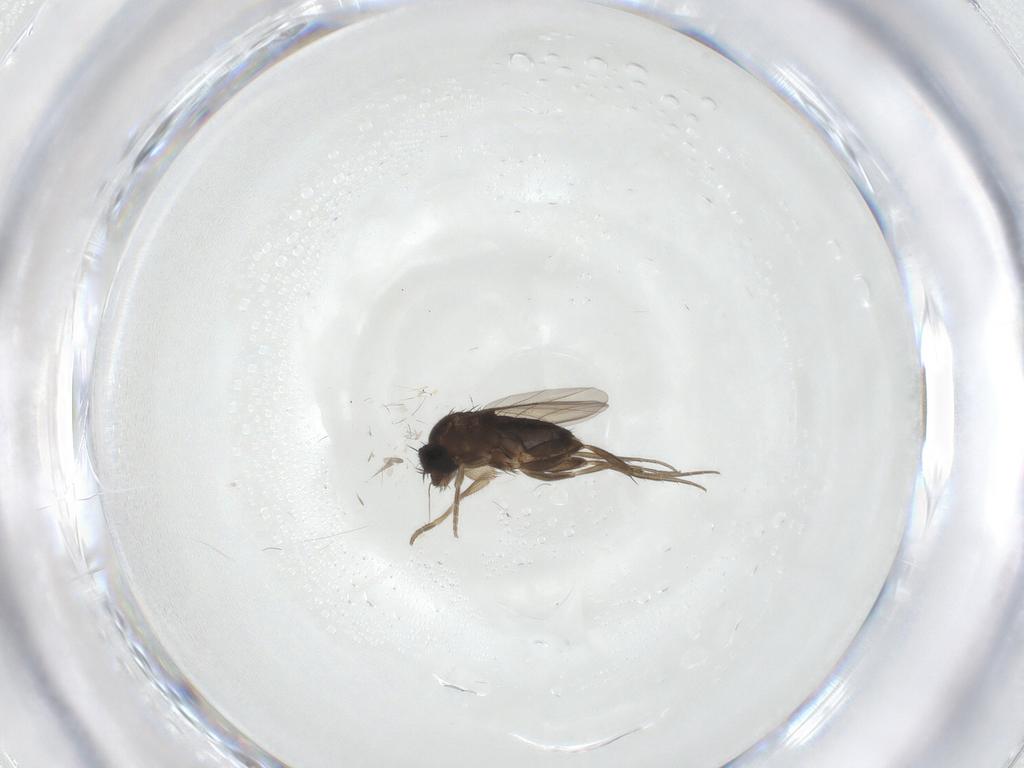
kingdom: Animalia
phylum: Arthropoda
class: Insecta
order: Diptera
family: Phoridae
